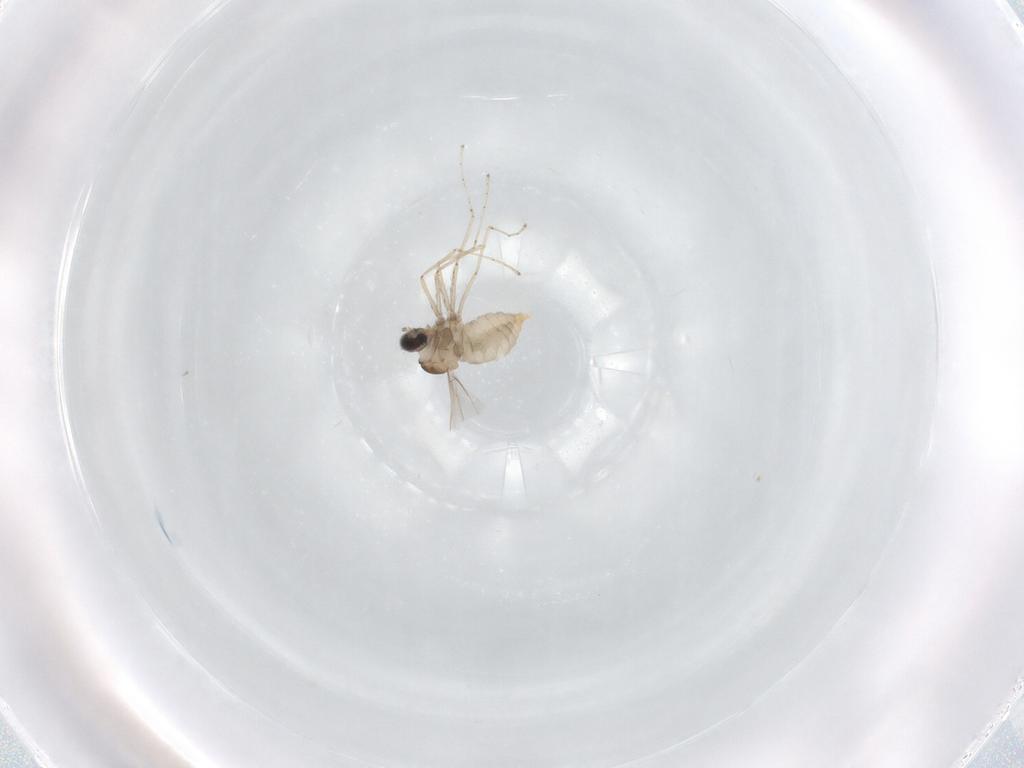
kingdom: Animalia
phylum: Arthropoda
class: Insecta
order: Diptera
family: Cecidomyiidae
